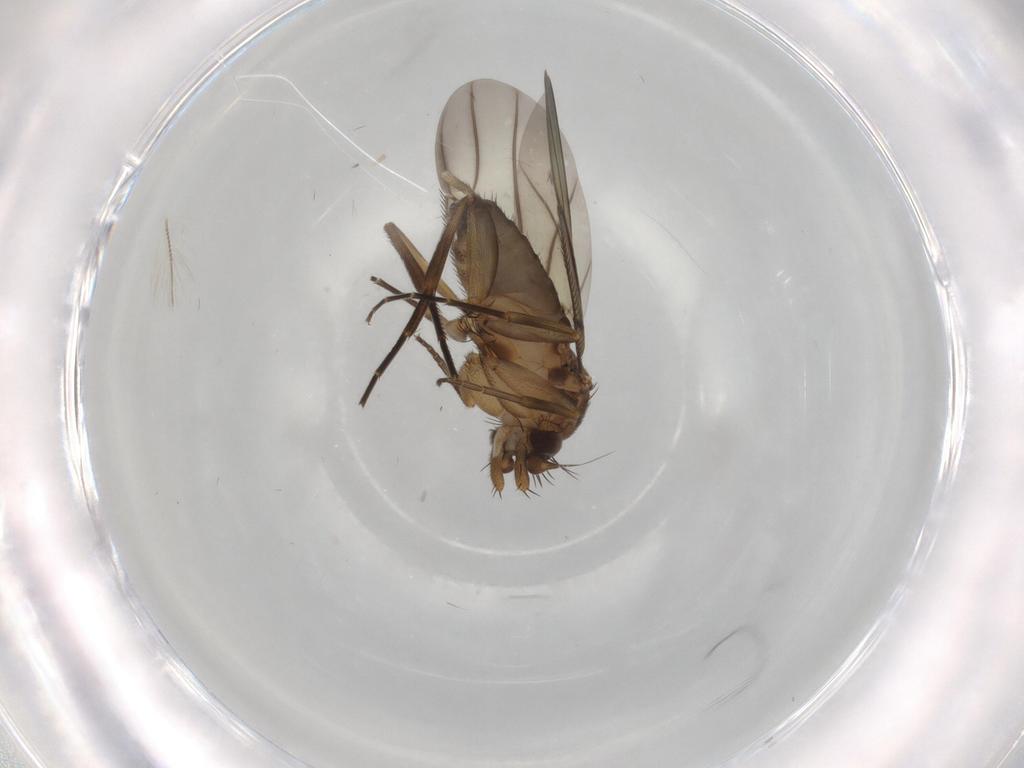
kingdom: Animalia
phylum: Arthropoda
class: Insecta
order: Diptera
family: Phoridae
